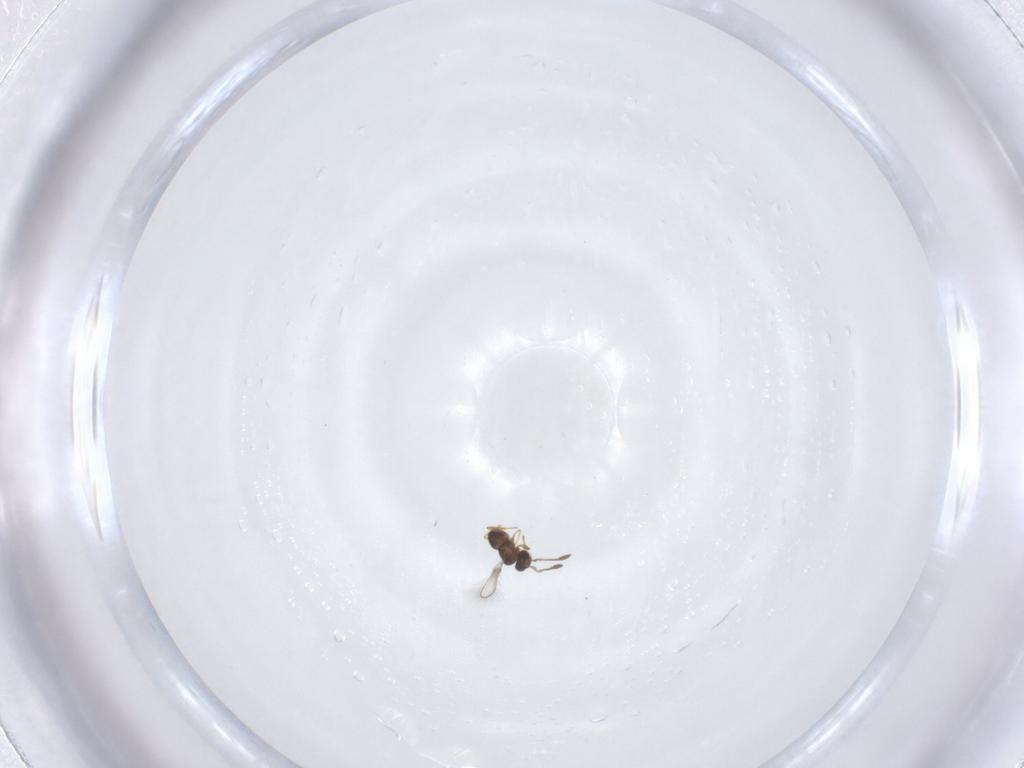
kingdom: Animalia
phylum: Arthropoda
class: Insecta
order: Hymenoptera
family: Mymaridae
